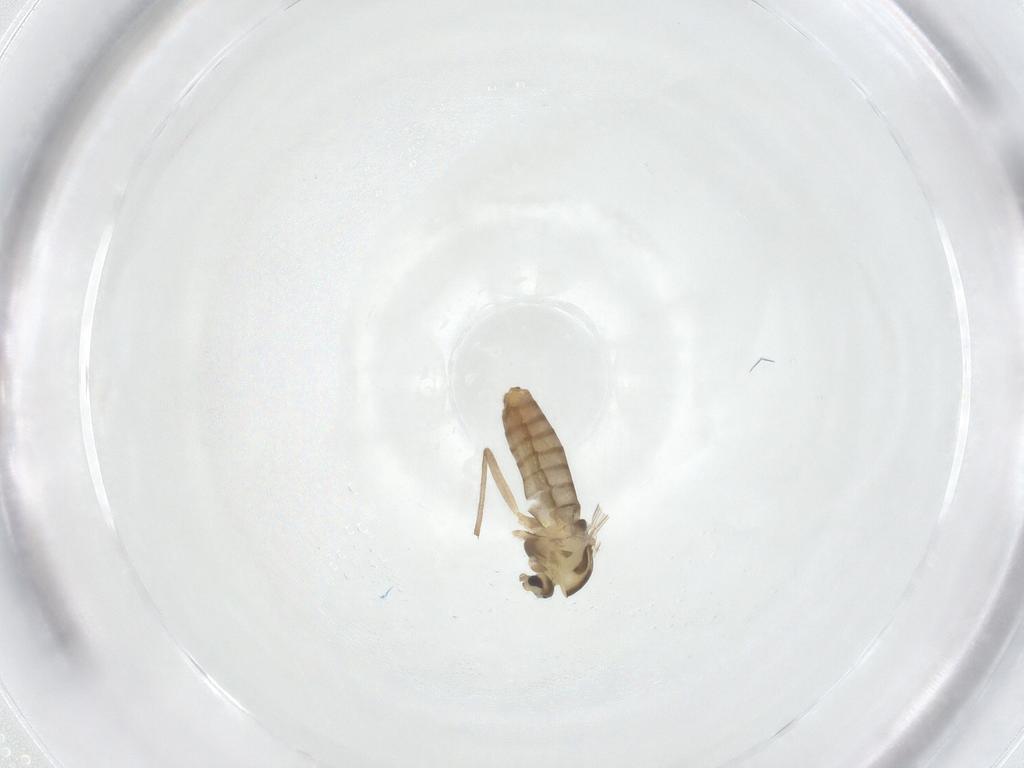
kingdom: Animalia
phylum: Arthropoda
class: Insecta
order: Diptera
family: Chironomidae
